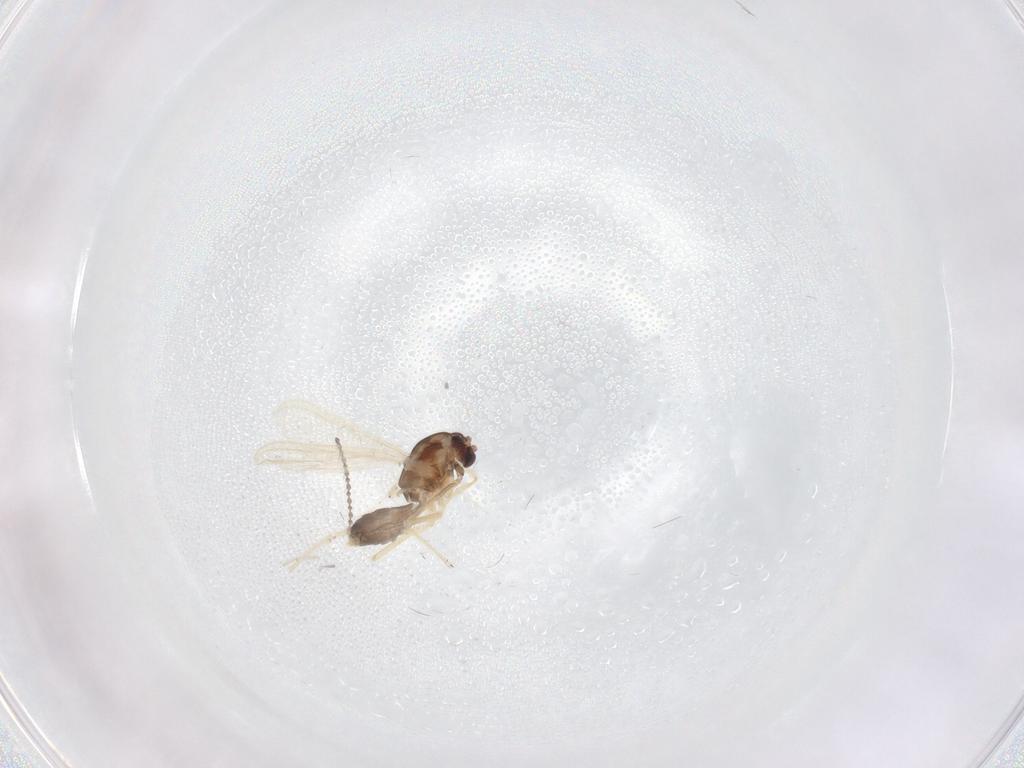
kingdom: Animalia
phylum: Arthropoda
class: Insecta
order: Diptera
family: Chironomidae
